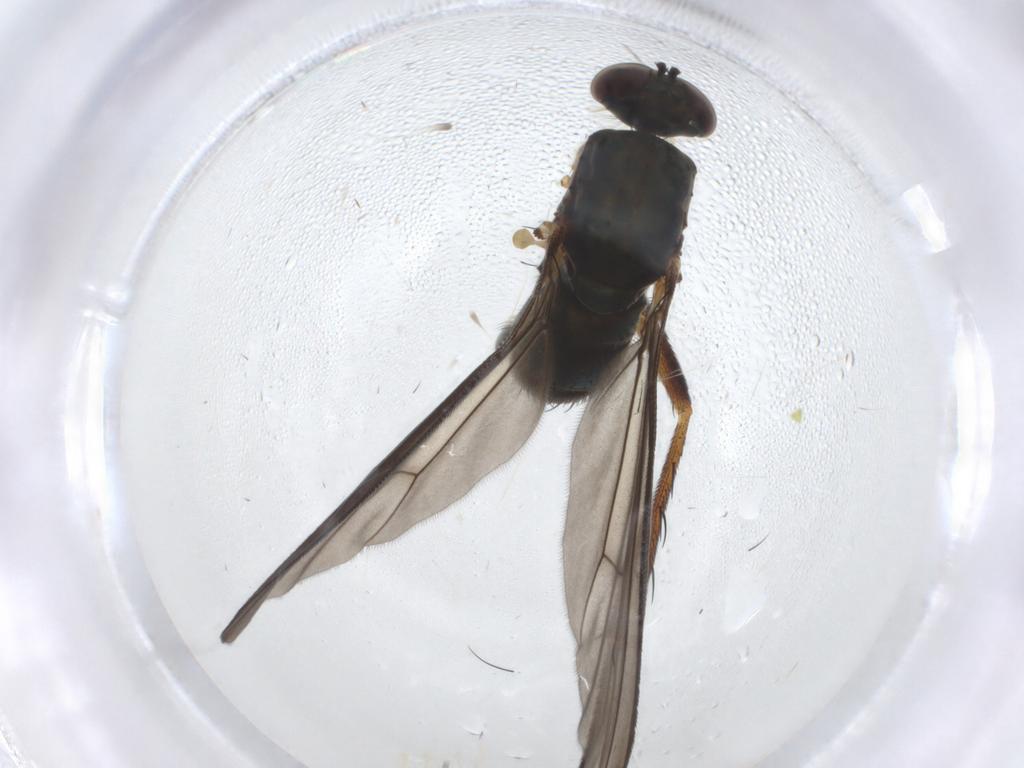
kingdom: Animalia
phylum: Arthropoda
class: Insecta
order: Diptera
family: Dolichopodidae
